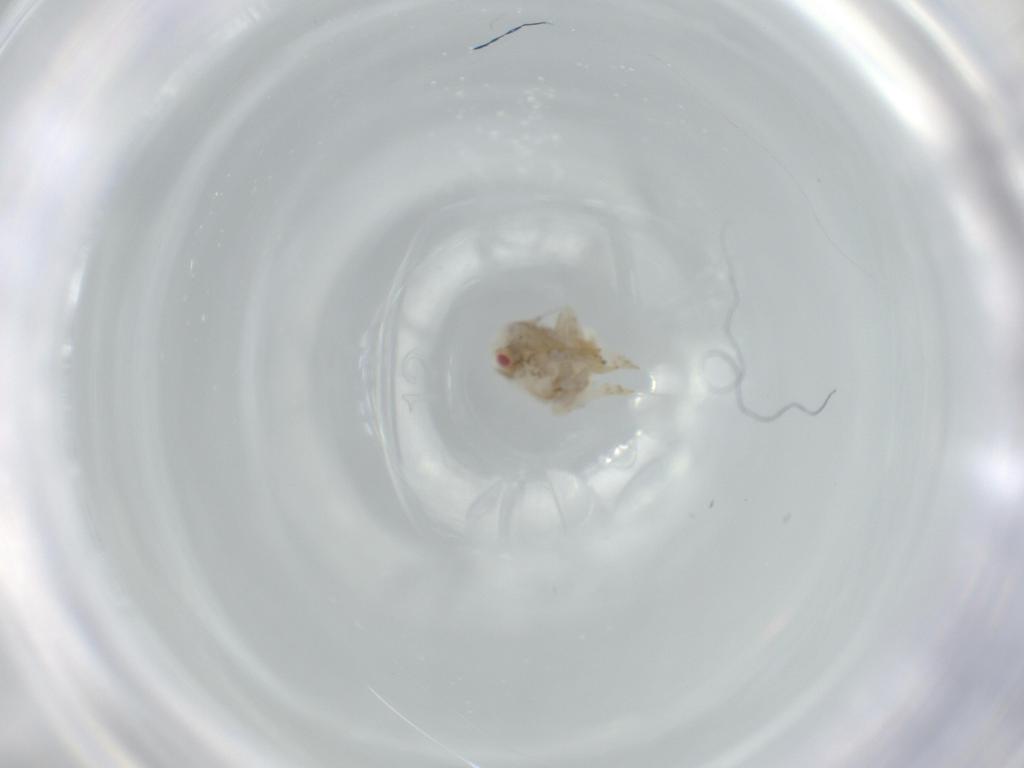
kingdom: Animalia
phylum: Arthropoda
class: Insecta
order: Hemiptera
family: Acanaloniidae
